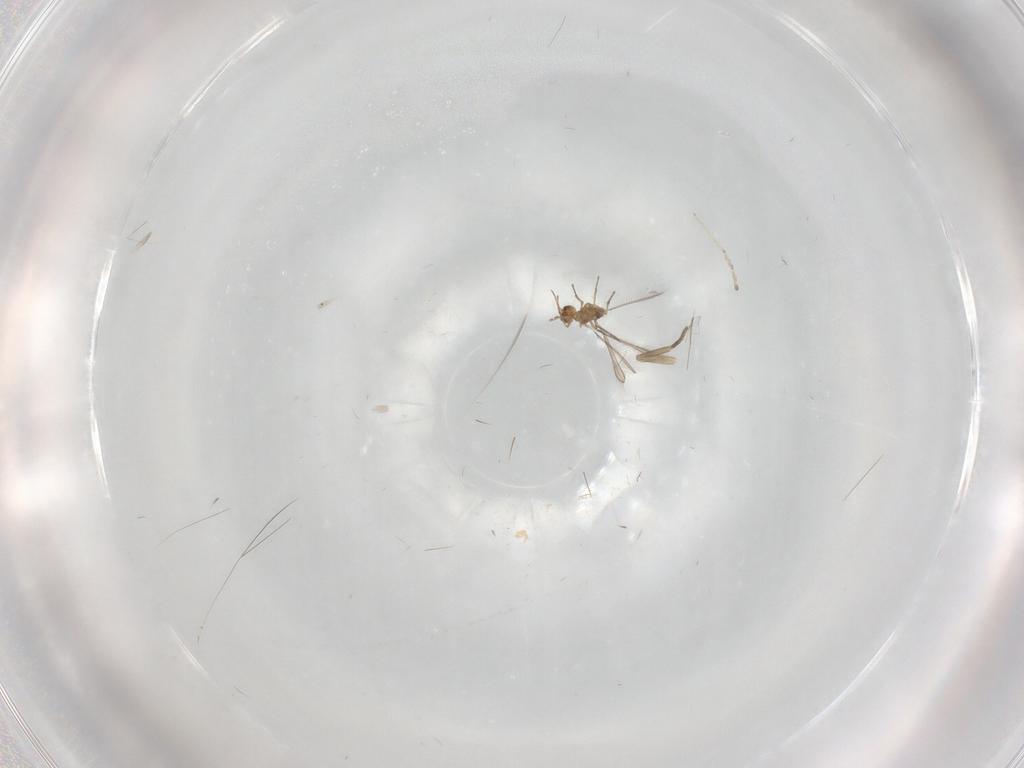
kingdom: Animalia
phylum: Arthropoda
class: Insecta
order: Diptera
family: Phoridae
